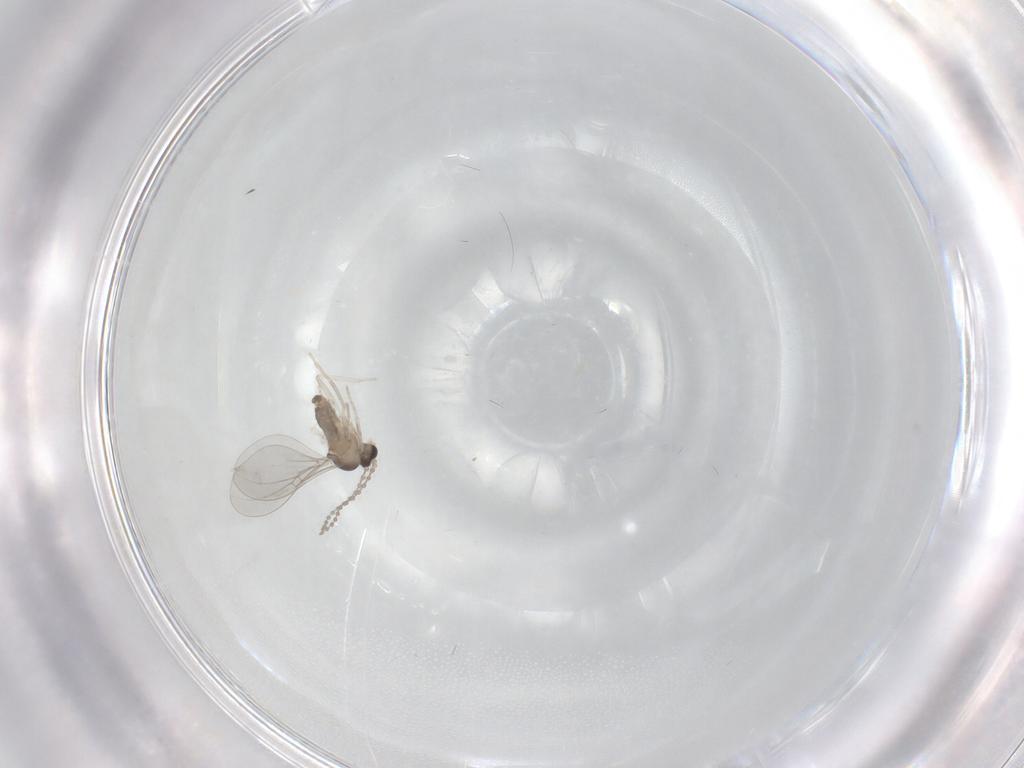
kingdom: Animalia
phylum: Arthropoda
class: Insecta
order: Diptera
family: Cecidomyiidae
